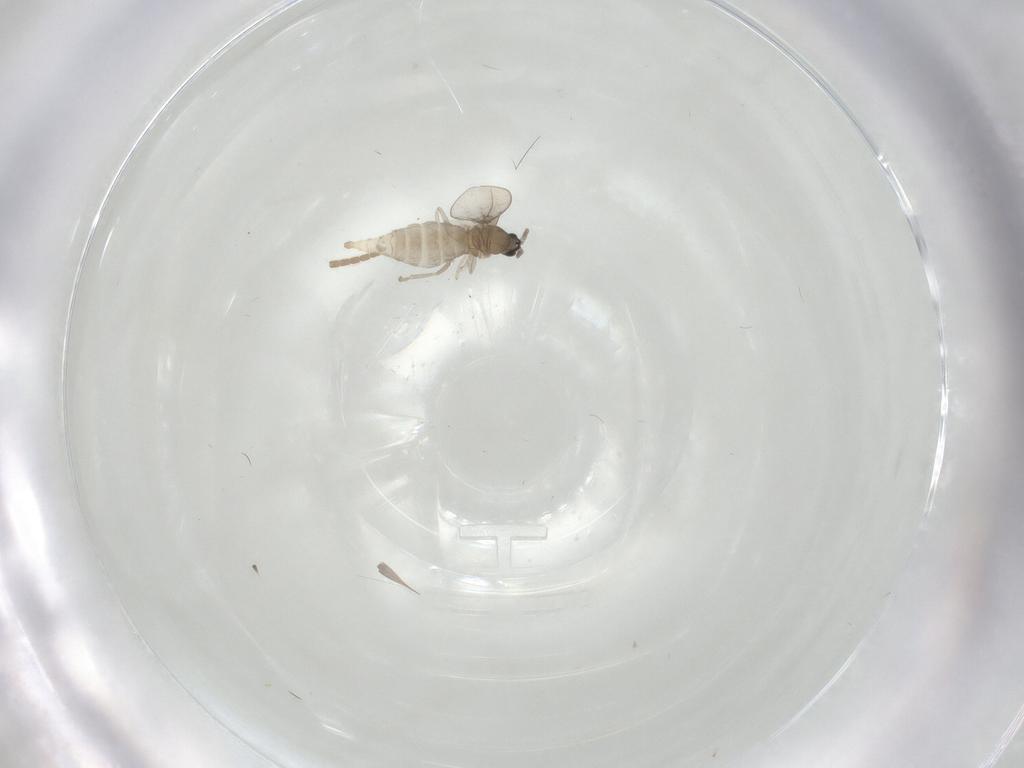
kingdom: Animalia
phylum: Arthropoda
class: Insecta
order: Diptera
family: Cecidomyiidae
